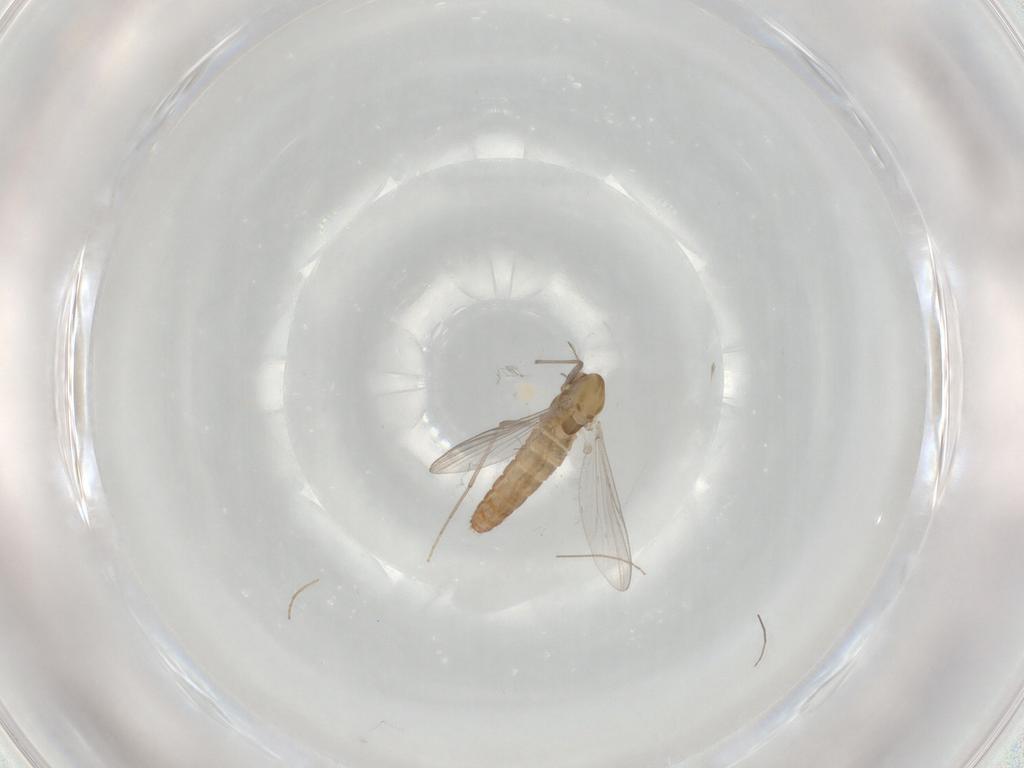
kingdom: Animalia
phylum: Arthropoda
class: Insecta
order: Diptera
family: Chironomidae
